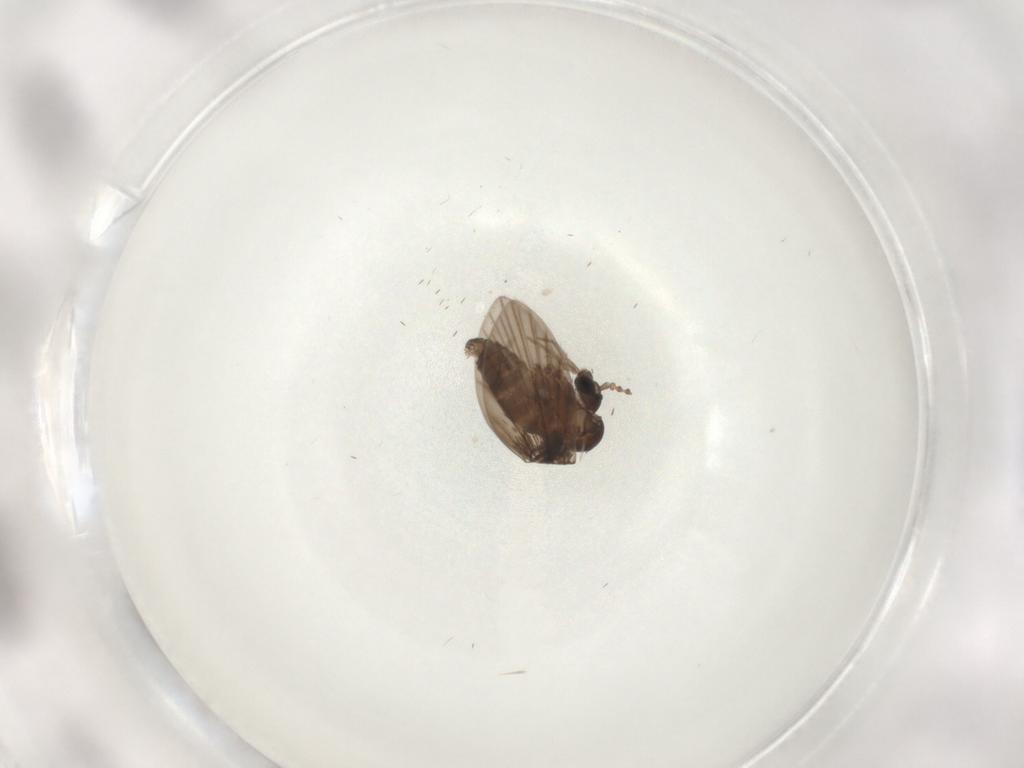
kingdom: Animalia
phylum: Arthropoda
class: Insecta
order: Diptera
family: Psychodidae
